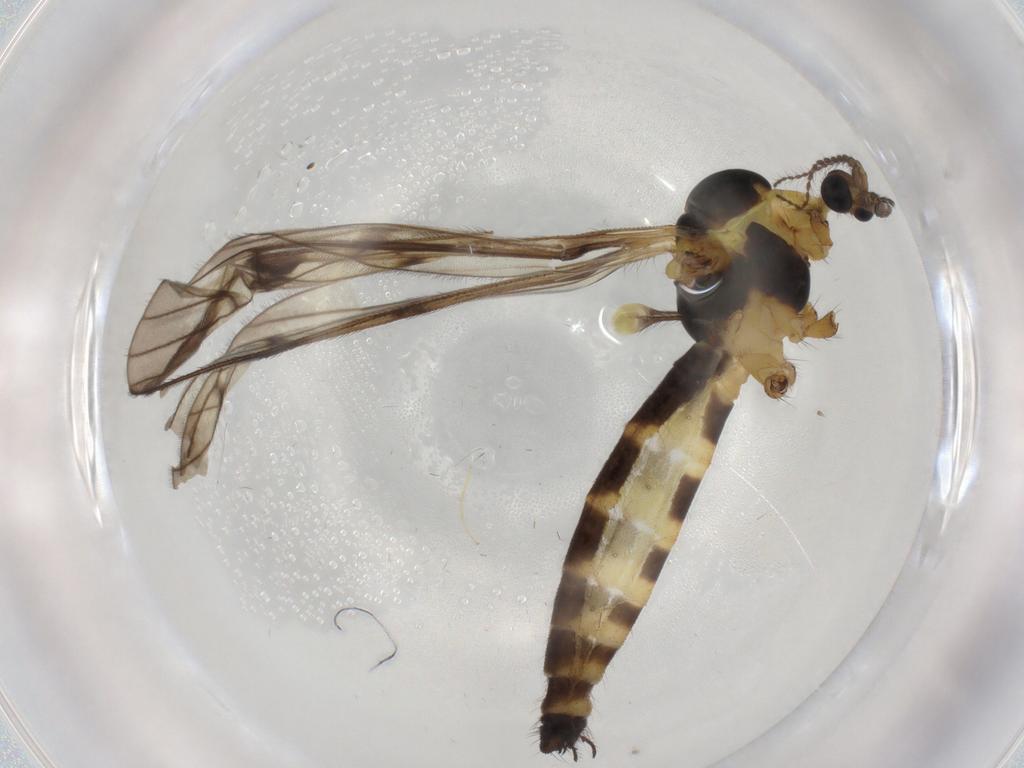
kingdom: Animalia
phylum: Arthropoda
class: Insecta
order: Diptera
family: Limoniidae
